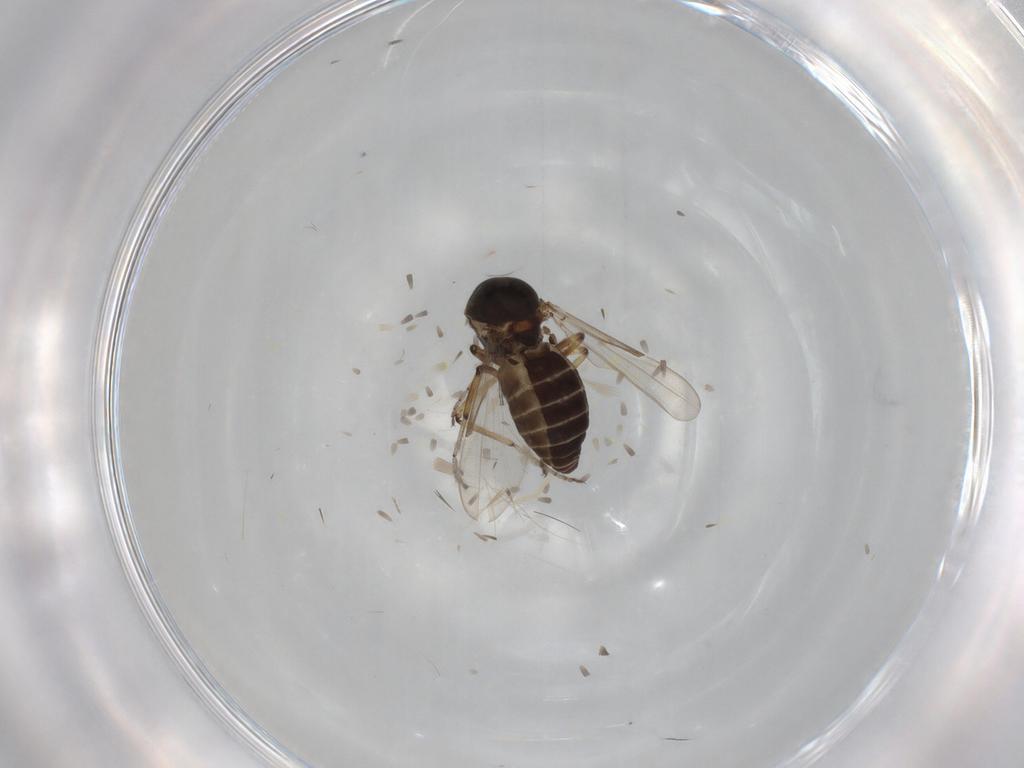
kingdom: Animalia
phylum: Arthropoda
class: Insecta
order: Diptera
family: Ceratopogonidae
